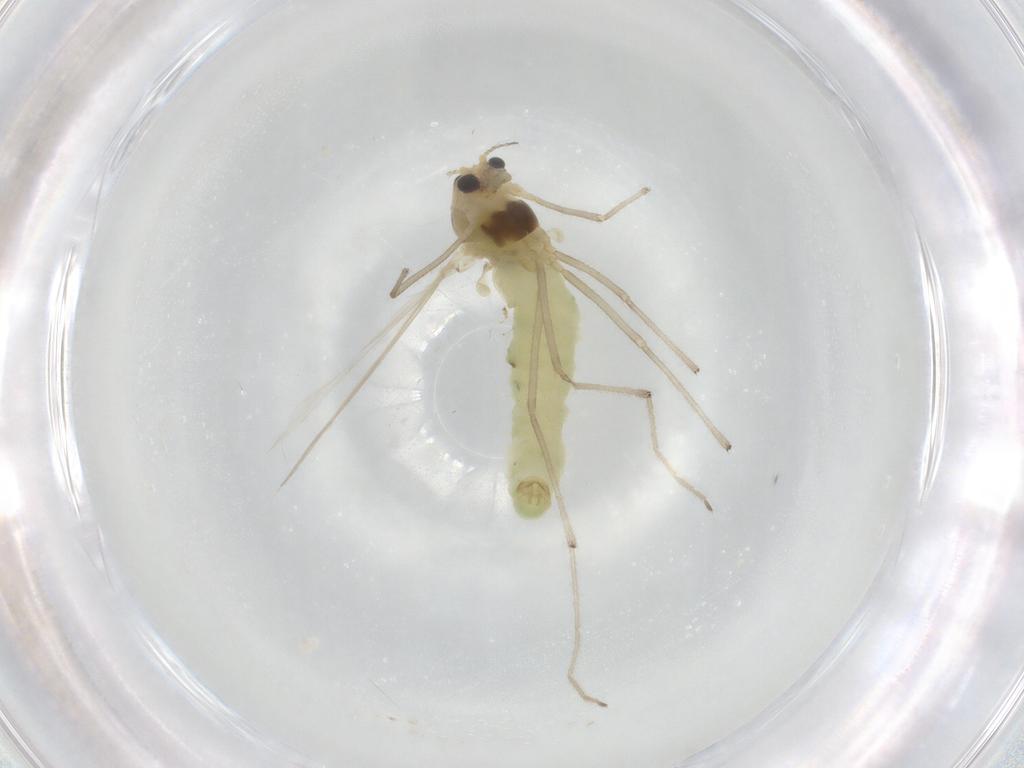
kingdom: Animalia
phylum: Arthropoda
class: Insecta
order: Diptera
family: Chironomidae
